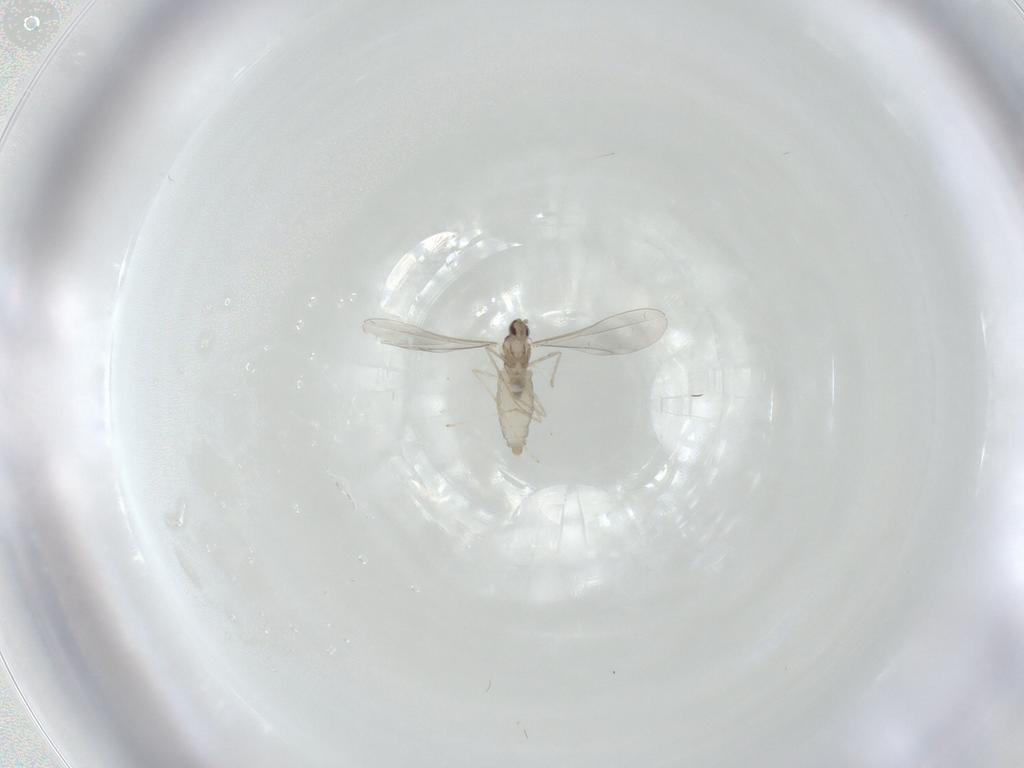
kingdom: Animalia
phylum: Arthropoda
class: Insecta
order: Diptera
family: Cecidomyiidae
